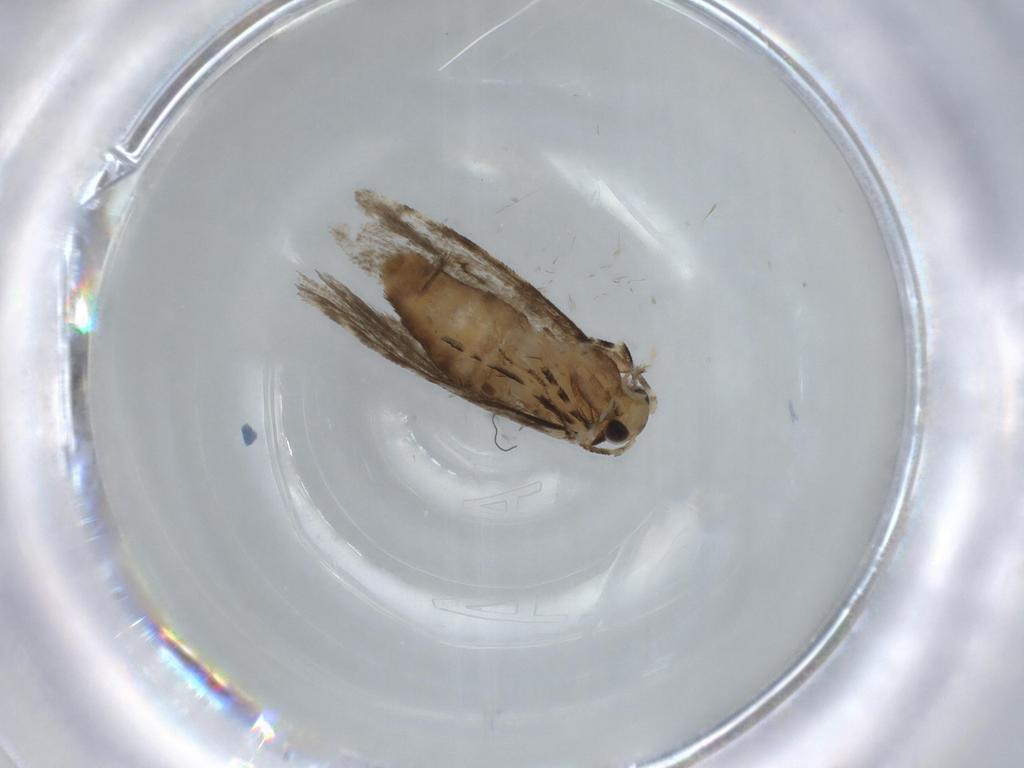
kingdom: Animalia
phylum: Arthropoda
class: Insecta
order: Lepidoptera
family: Tineidae
